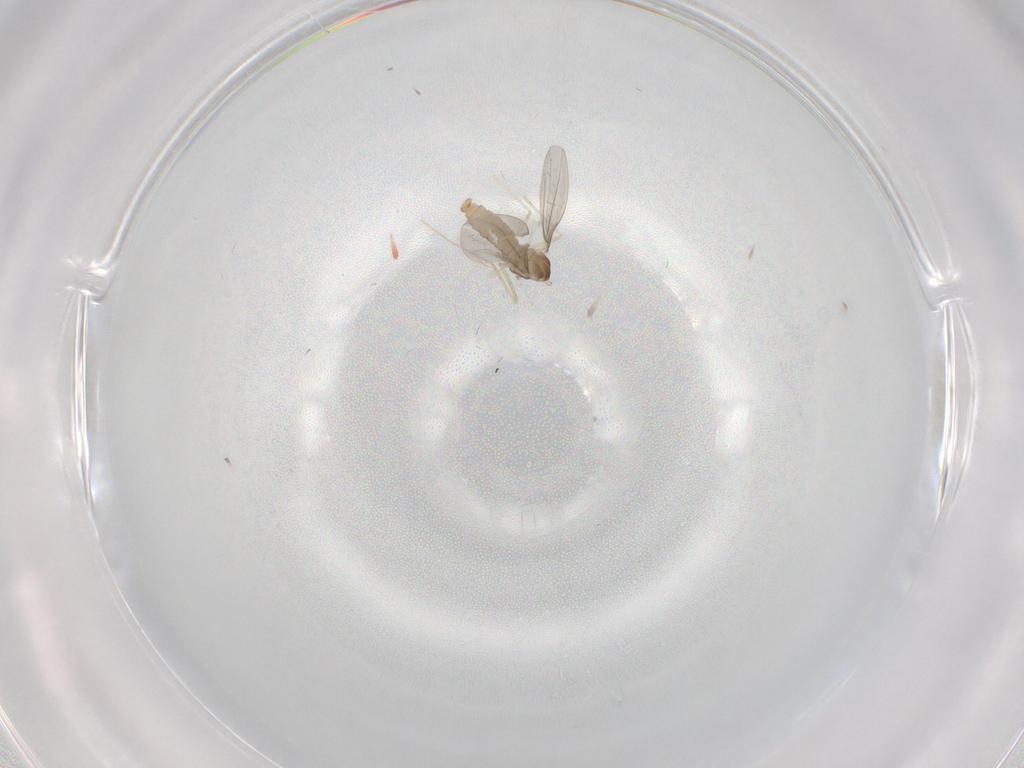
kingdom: Animalia
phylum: Arthropoda
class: Insecta
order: Diptera
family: Cecidomyiidae
